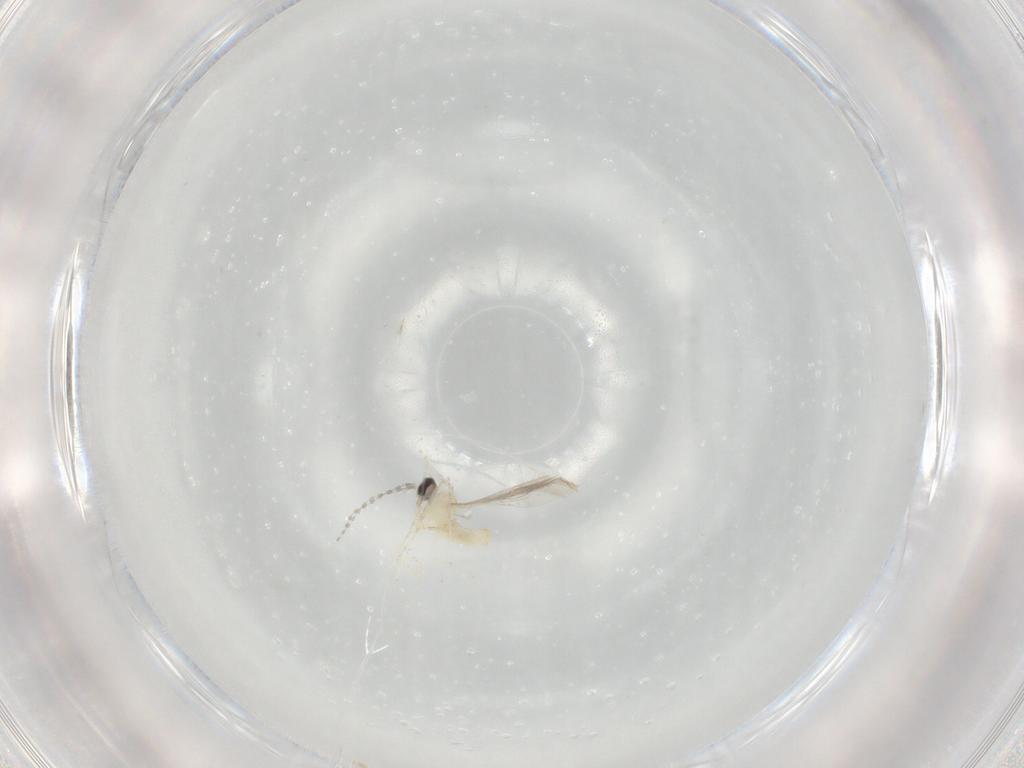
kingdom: Animalia
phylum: Arthropoda
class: Insecta
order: Diptera
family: Cecidomyiidae
